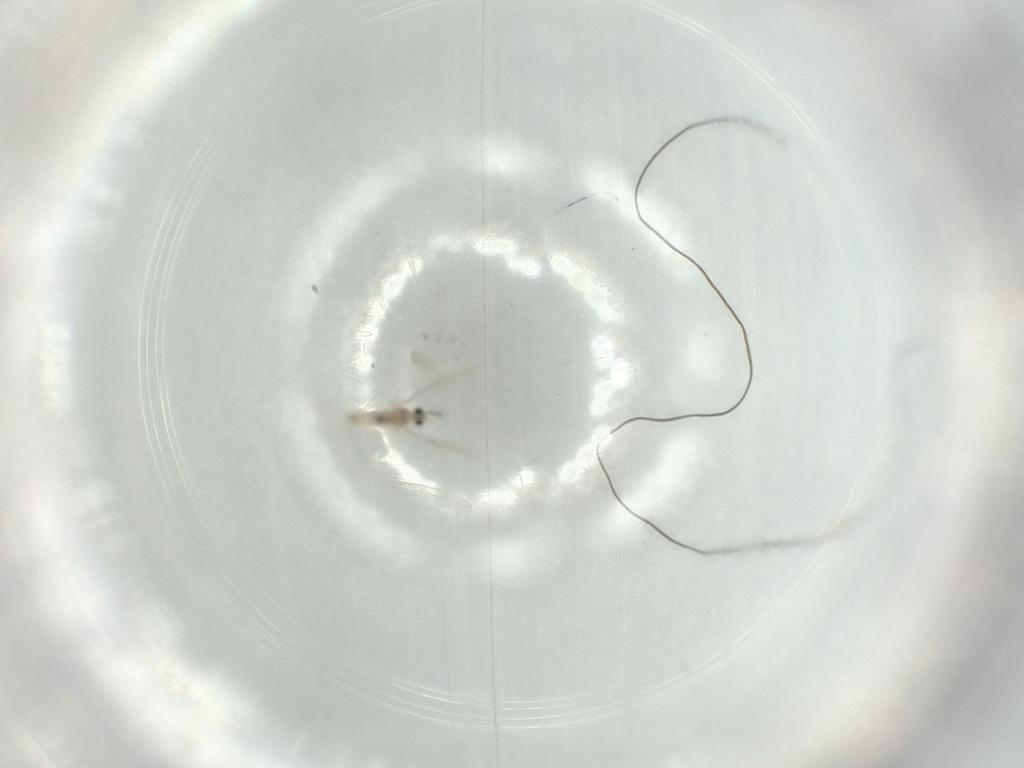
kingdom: Animalia
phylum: Arthropoda
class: Insecta
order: Diptera
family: Cecidomyiidae
